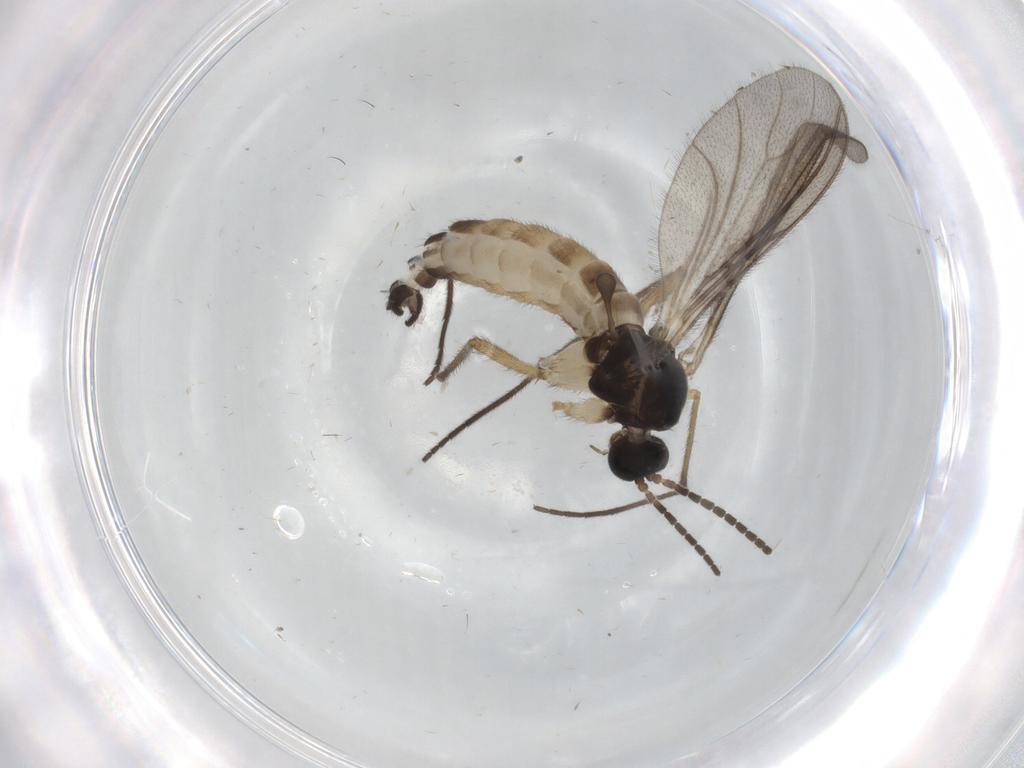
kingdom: Animalia
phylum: Arthropoda
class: Insecta
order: Diptera
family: Sciaridae
